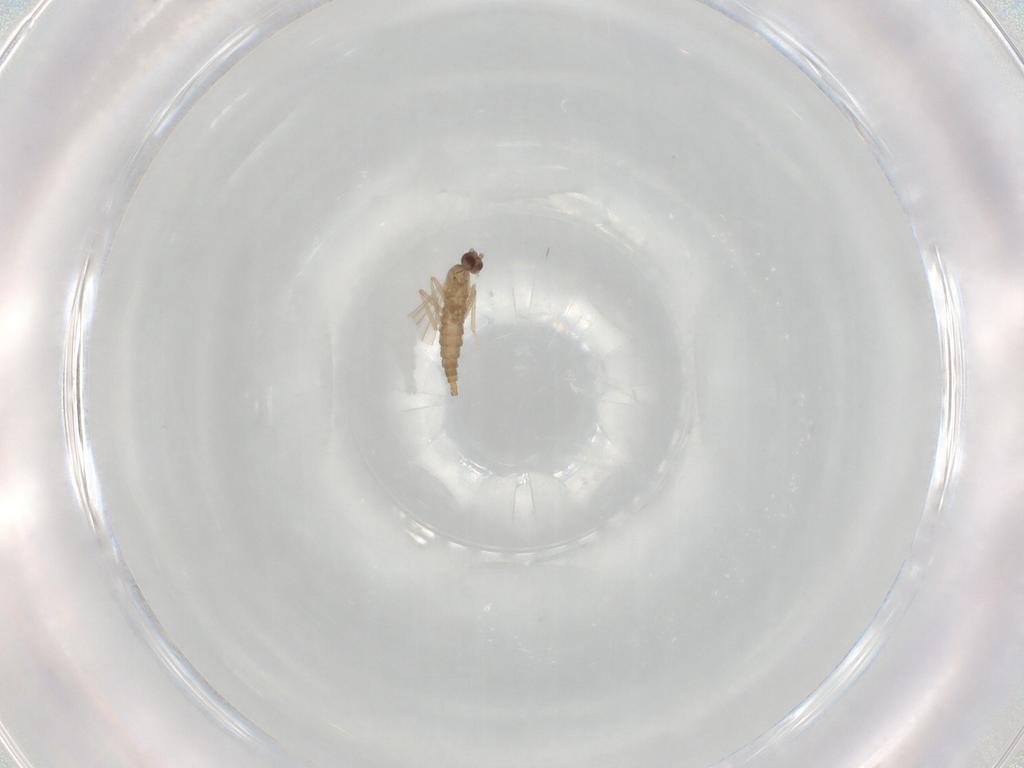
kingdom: Animalia
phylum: Arthropoda
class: Insecta
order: Diptera
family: Cecidomyiidae
